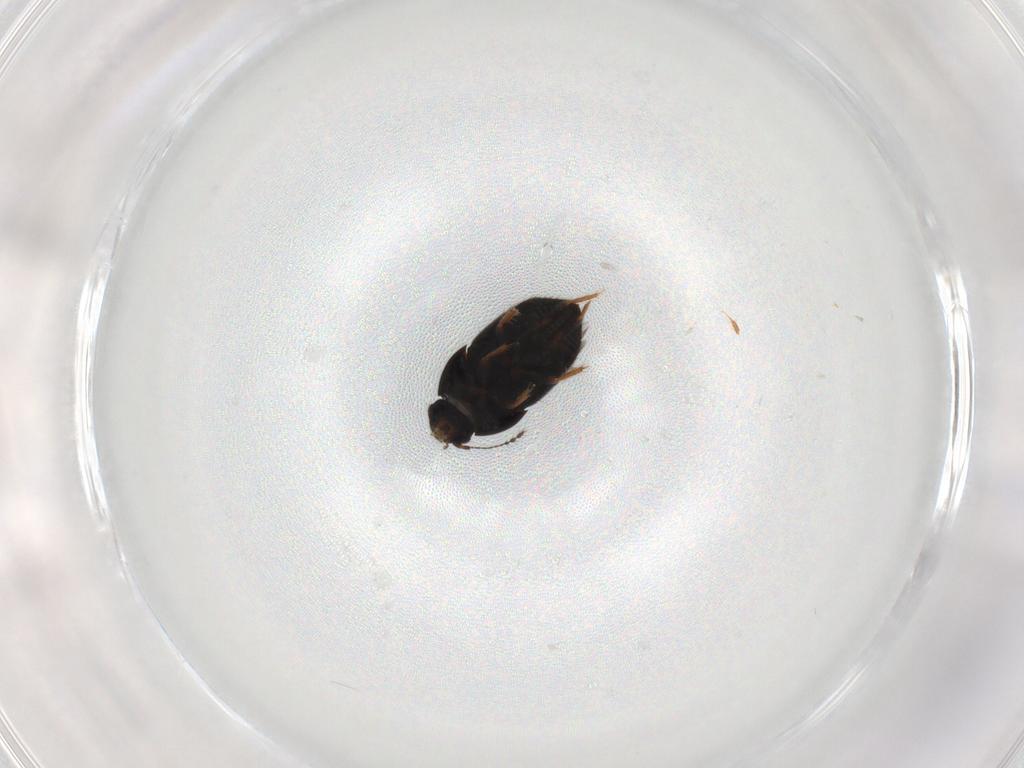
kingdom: Animalia
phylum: Arthropoda
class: Insecta
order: Coleoptera
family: Ptiliidae
